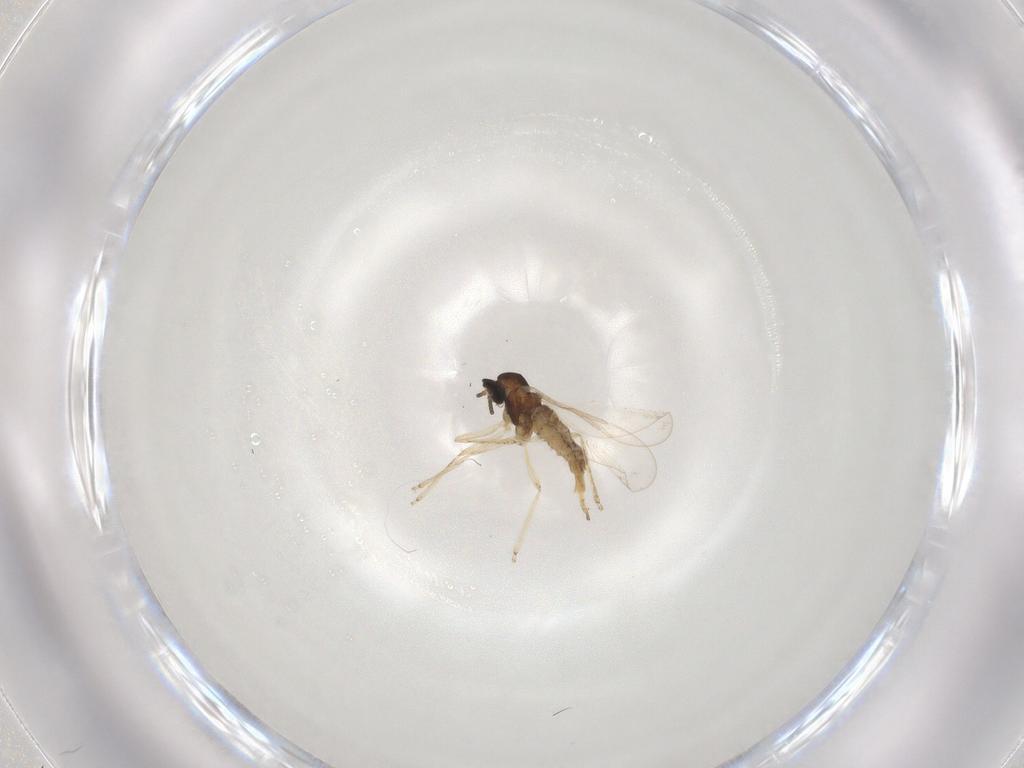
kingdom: Animalia
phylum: Arthropoda
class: Insecta
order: Diptera
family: Cecidomyiidae
